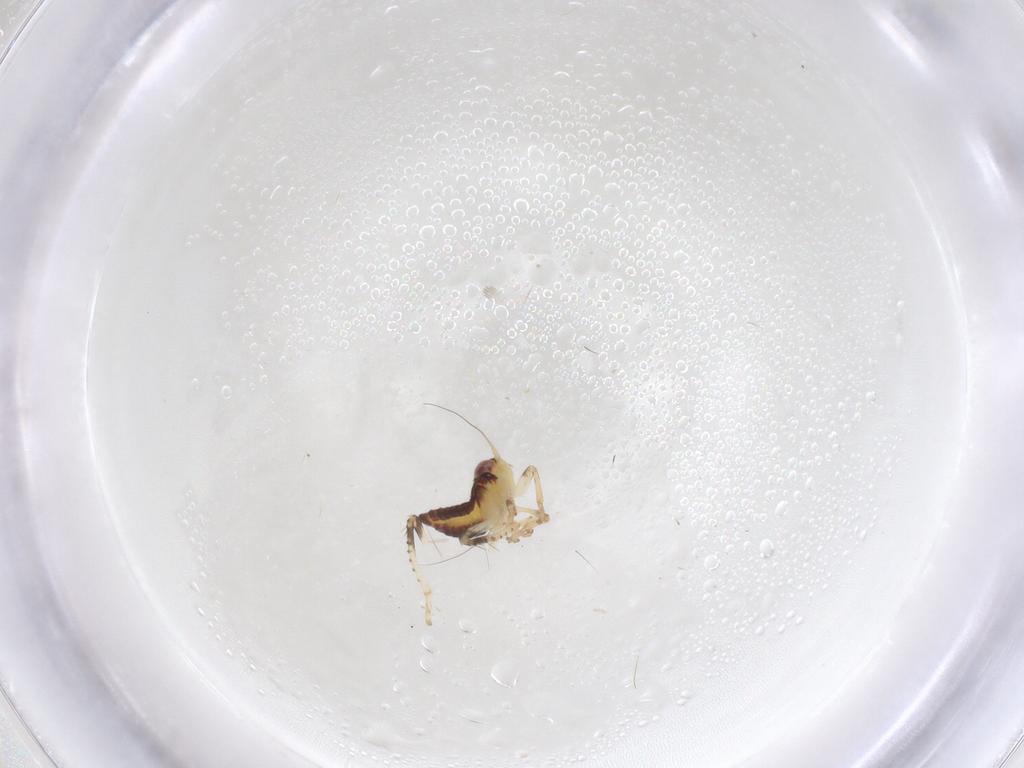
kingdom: Animalia
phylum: Arthropoda
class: Insecta
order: Hemiptera
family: Cicadellidae
